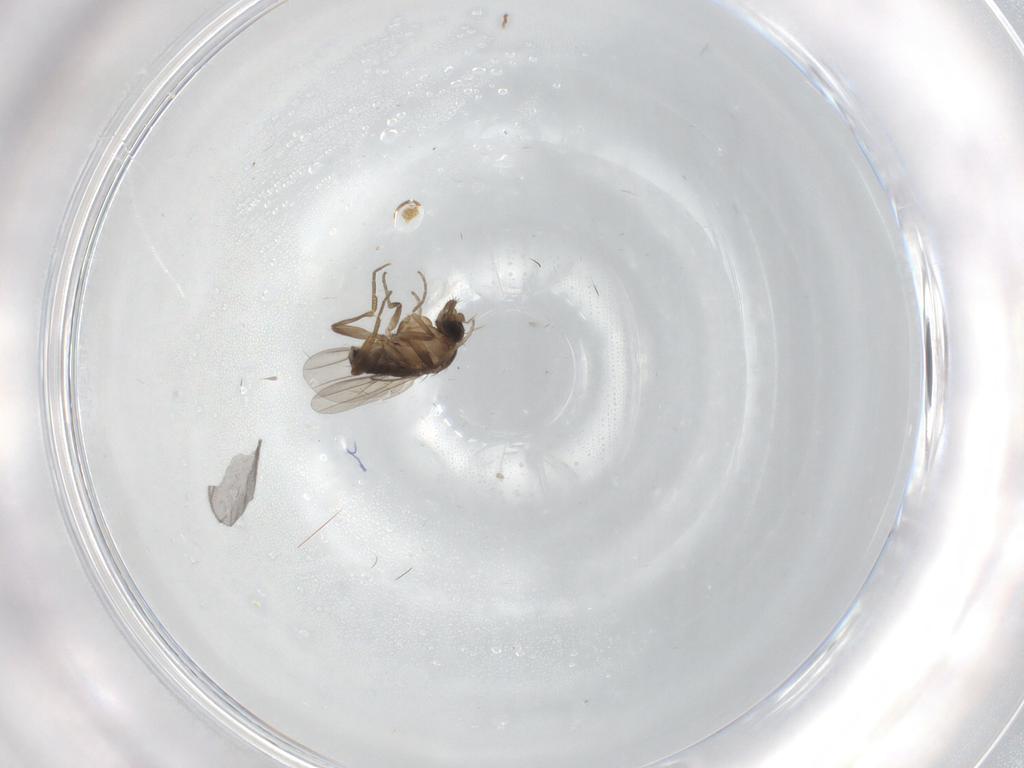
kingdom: Animalia
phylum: Arthropoda
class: Insecta
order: Diptera
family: Sciaridae
